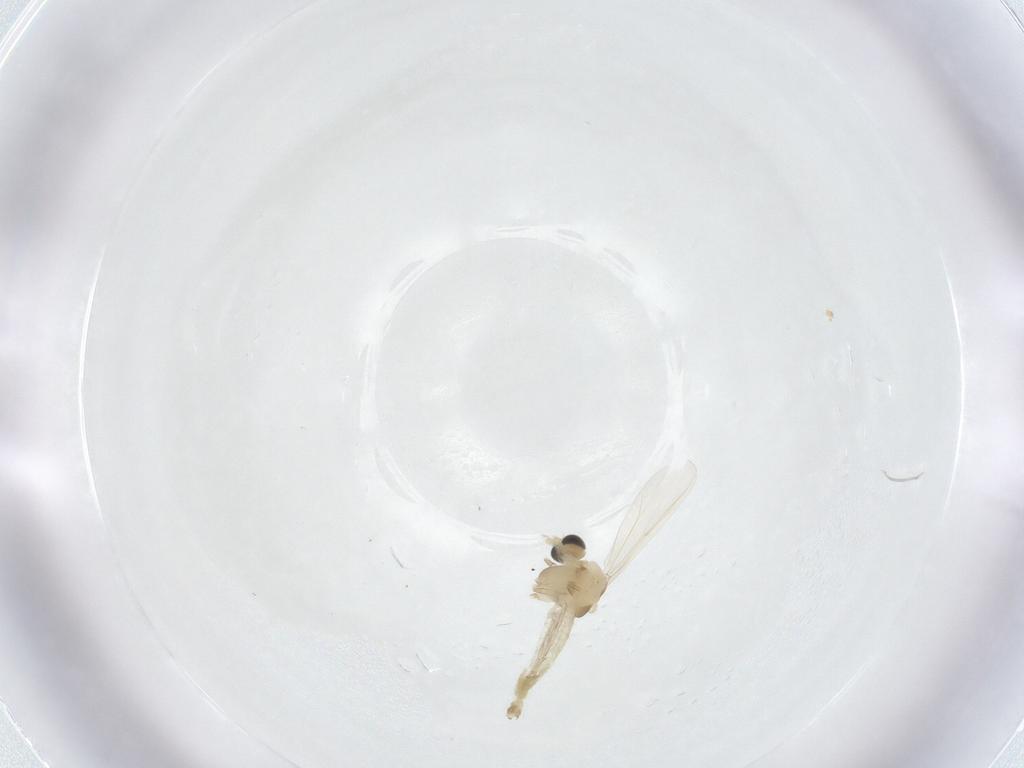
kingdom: Animalia
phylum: Arthropoda
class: Insecta
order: Diptera
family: Chironomidae
